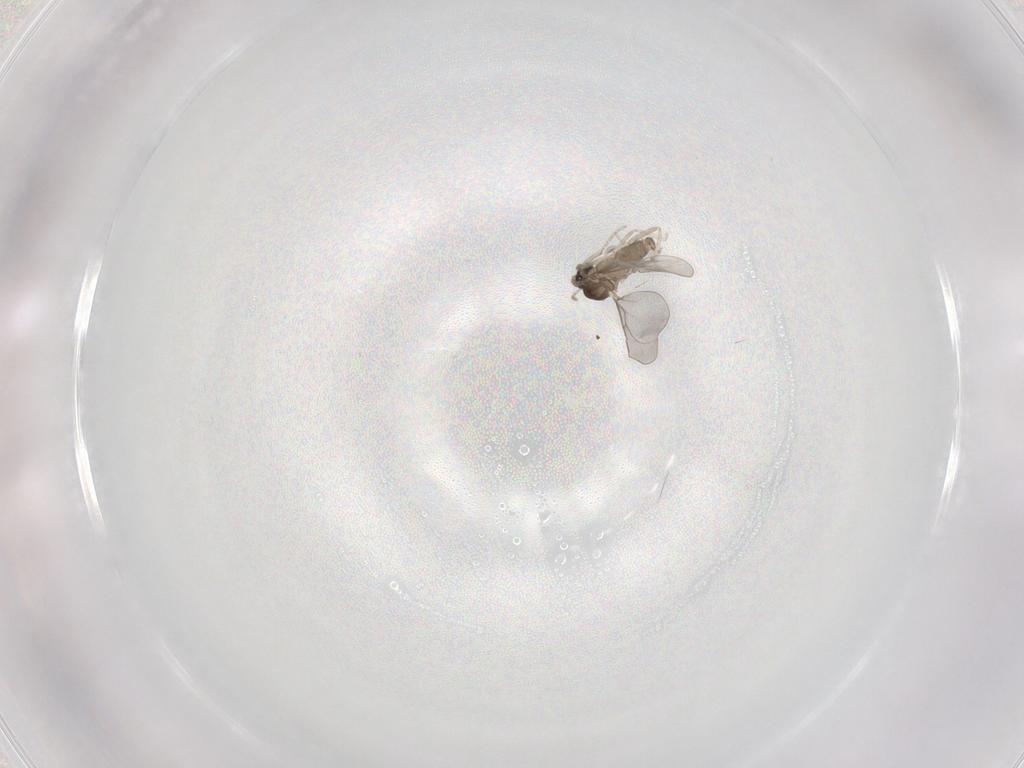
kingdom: Animalia
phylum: Arthropoda
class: Insecta
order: Diptera
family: Cecidomyiidae
